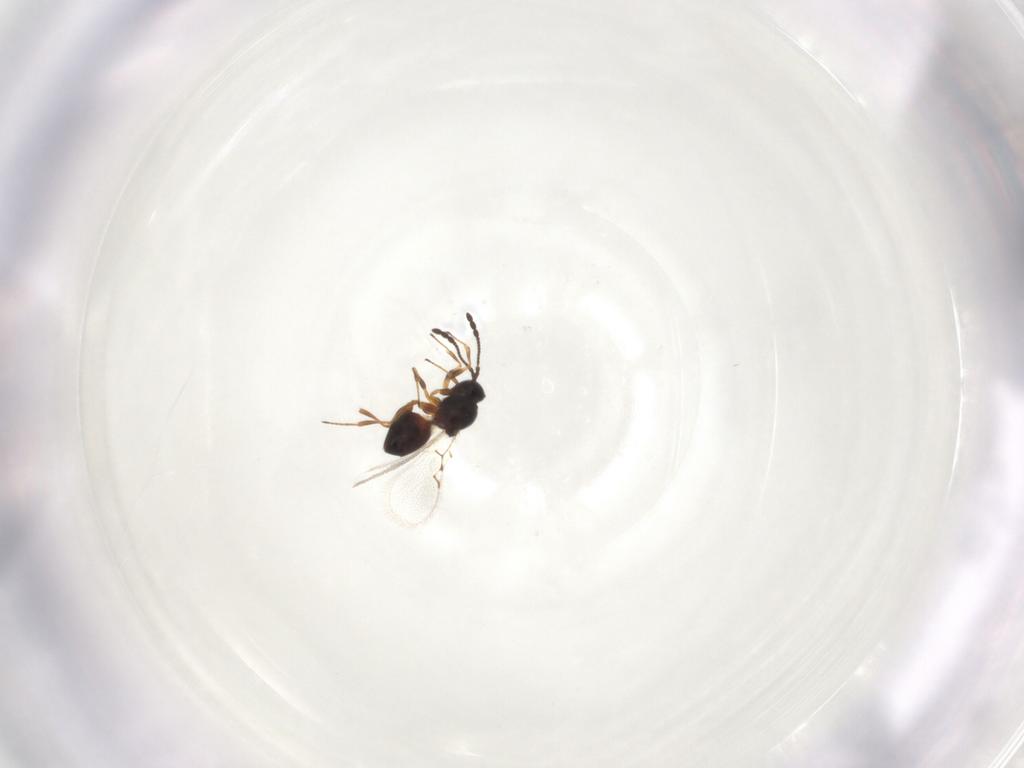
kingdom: Animalia
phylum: Arthropoda
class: Insecta
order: Hymenoptera
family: Figitidae
